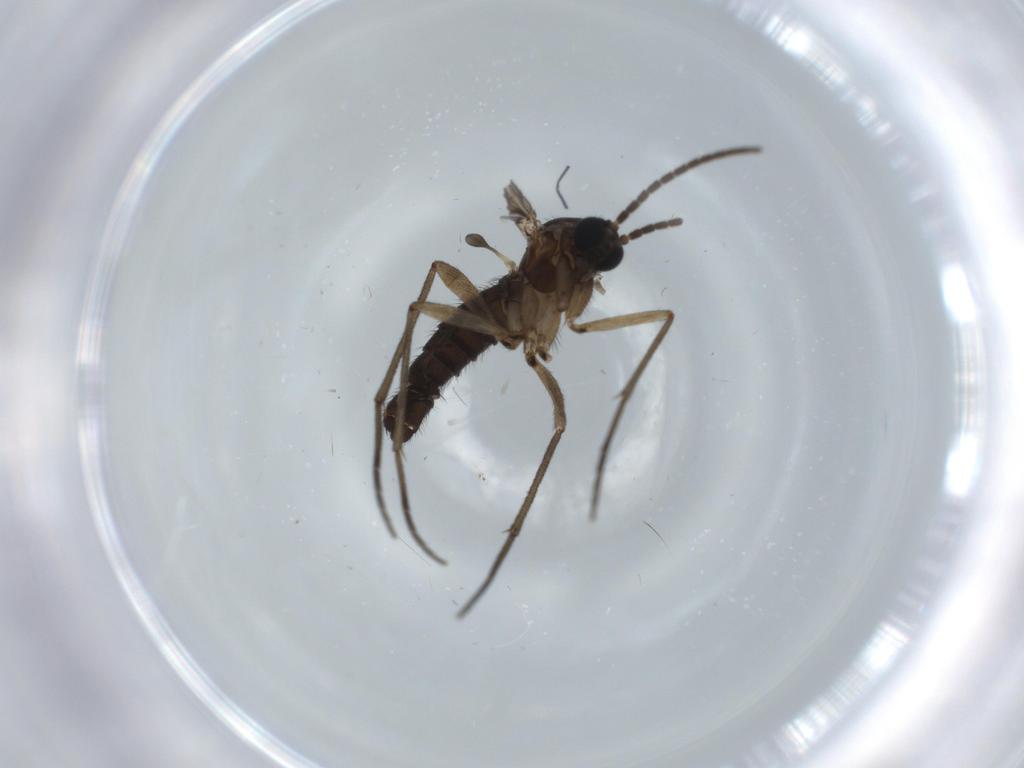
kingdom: Animalia
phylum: Arthropoda
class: Insecta
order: Diptera
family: Sciaridae
